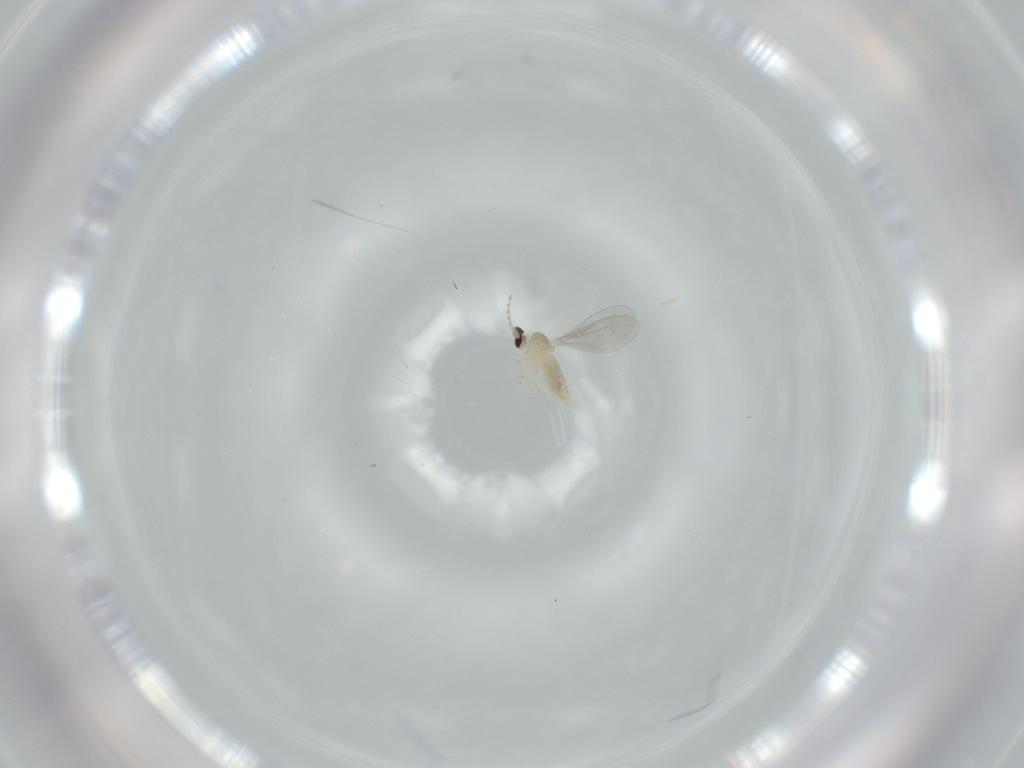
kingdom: Animalia
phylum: Arthropoda
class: Insecta
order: Diptera
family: Cecidomyiidae
